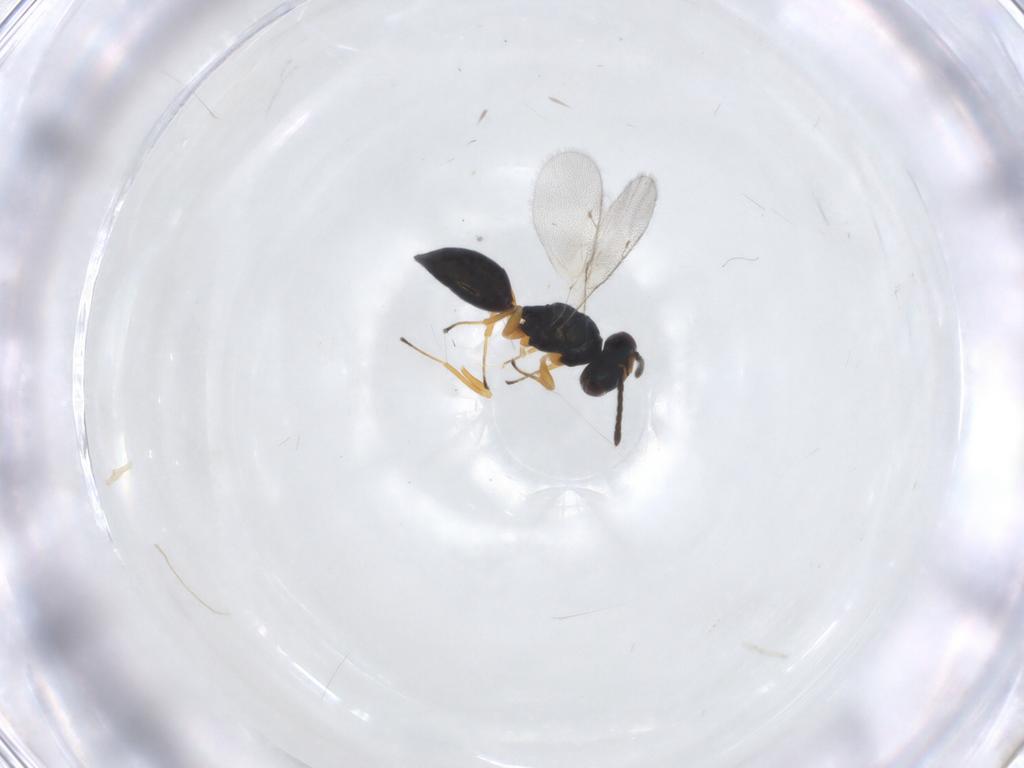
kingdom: Animalia
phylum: Arthropoda
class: Insecta
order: Hymenoptera
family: Pteromalidae
